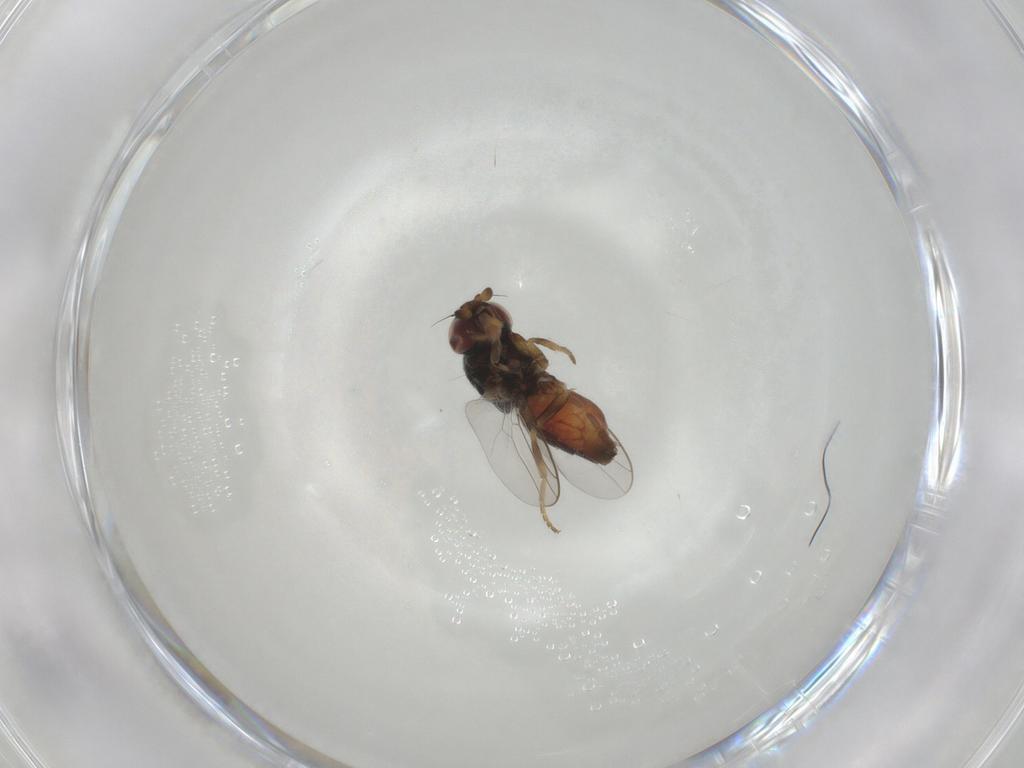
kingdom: Animalia
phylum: Arthropoda
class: Insecta
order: Diptera
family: Chloropidae
